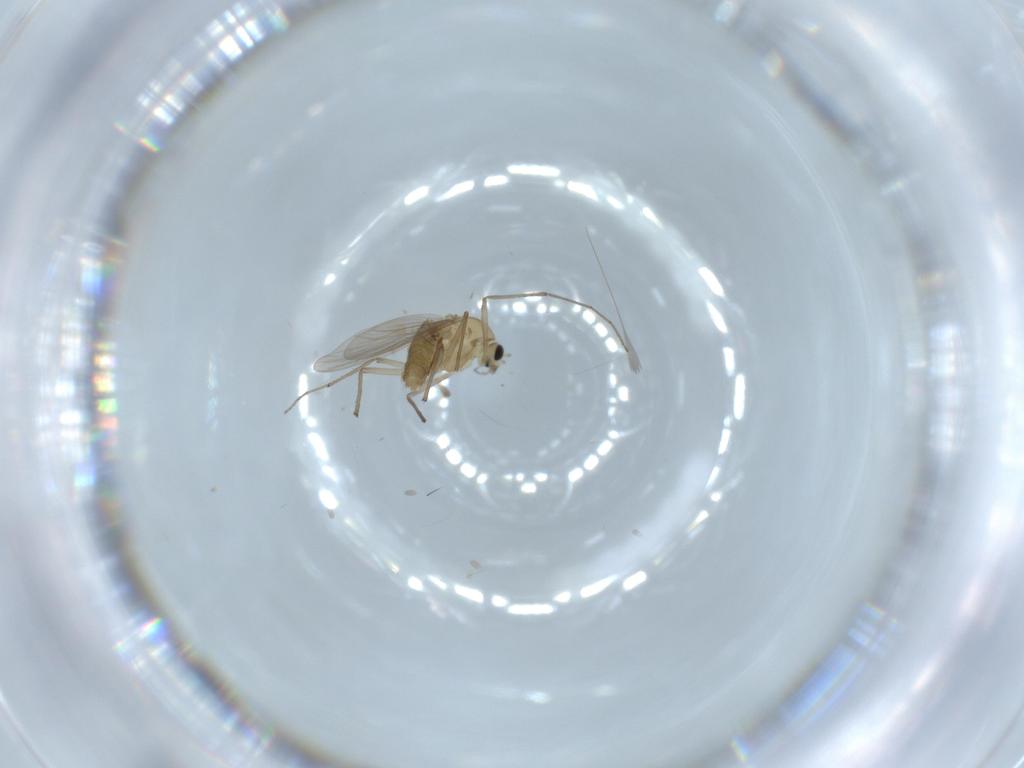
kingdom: Animalia
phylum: Arthropoda
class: Insecta
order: Diptera
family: Chironomidae
